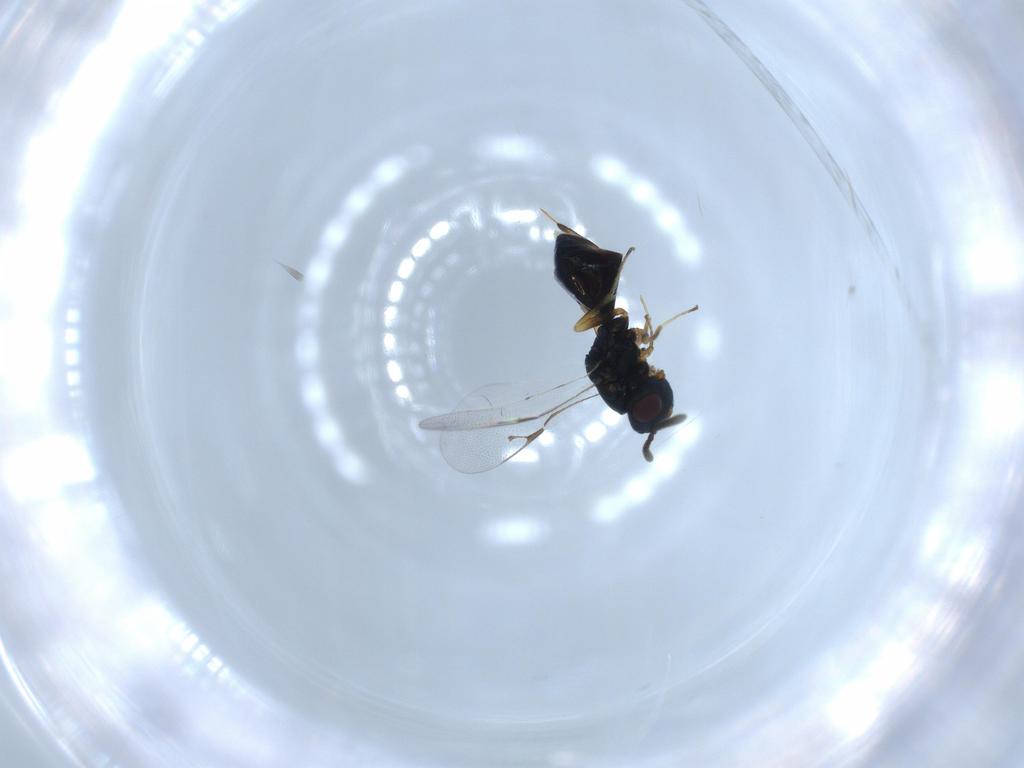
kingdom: Animalia
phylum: Arthropoda
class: Insecta
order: Hymenoptera
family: Pteromalidae
